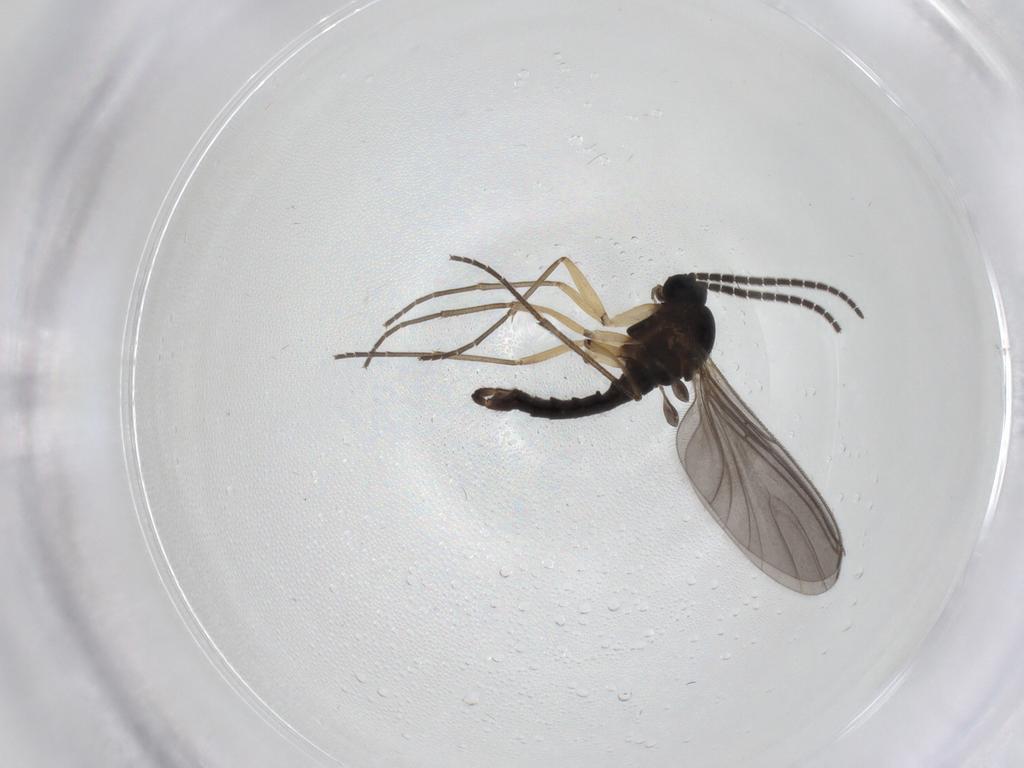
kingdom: Animalia
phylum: Arthropoda
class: Insecta
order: Diptera
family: Sciaridae
